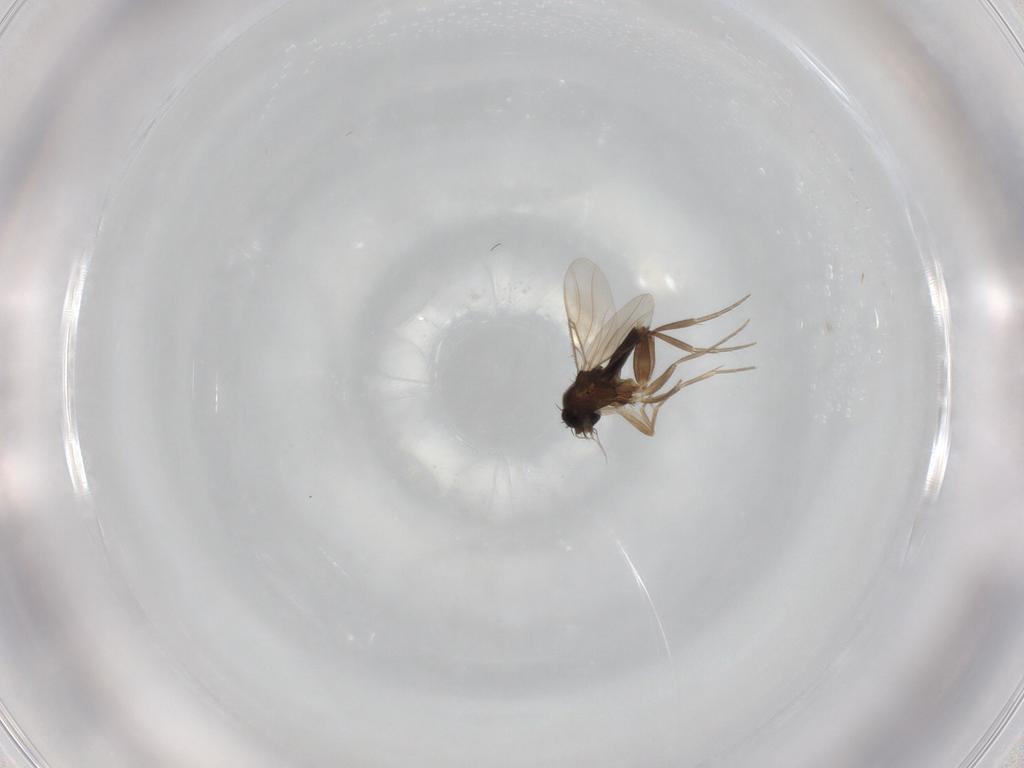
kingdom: Animalia
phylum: Arthropoda
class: Insecta
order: Diptera
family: Phoridae
